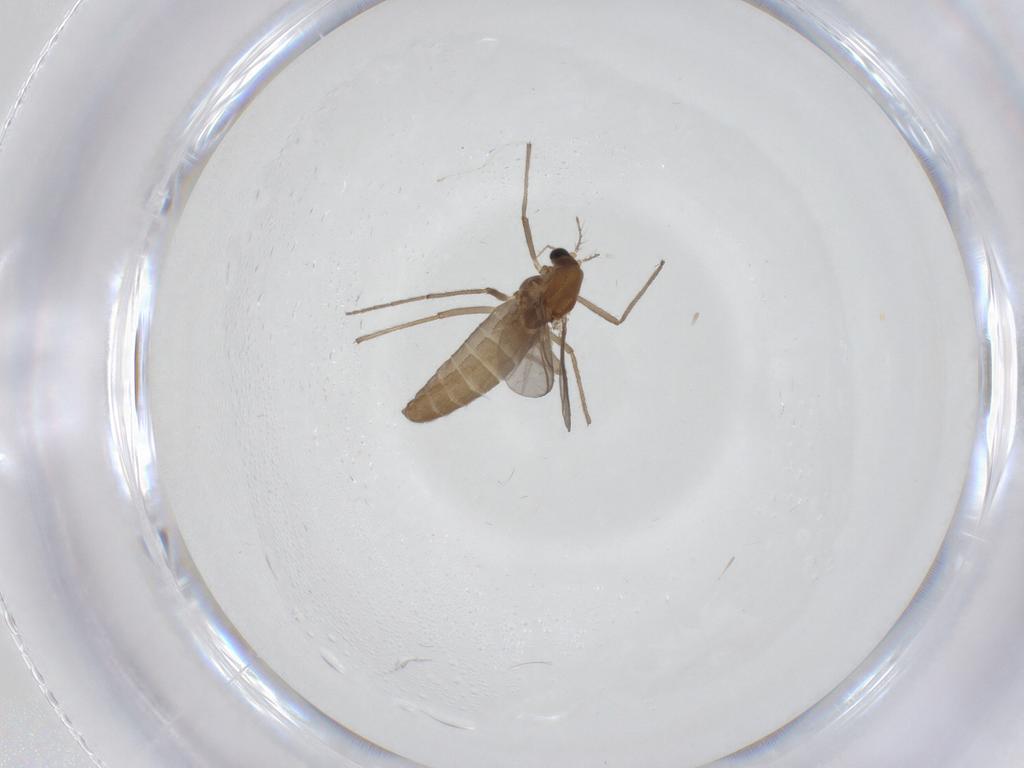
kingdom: Animalia
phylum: Arthropoda
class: Insecta
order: Diptera
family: Chironomidae
